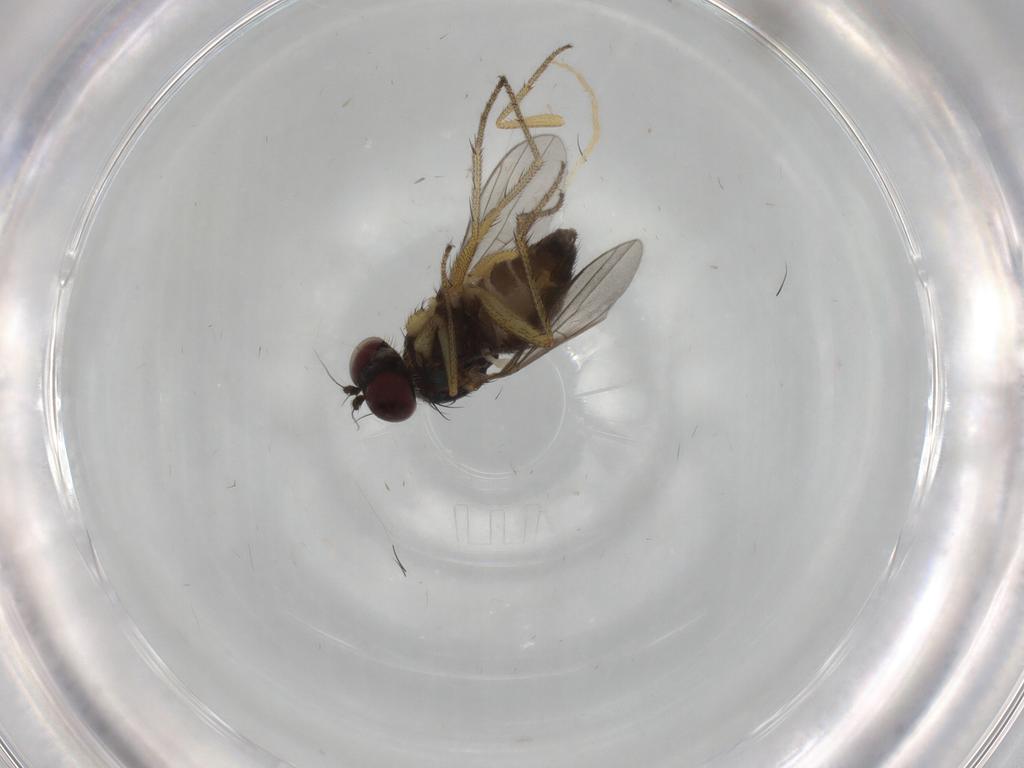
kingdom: Animalia
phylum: Arthropoda
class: Insecta
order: Diptera
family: Dolichopodidae
